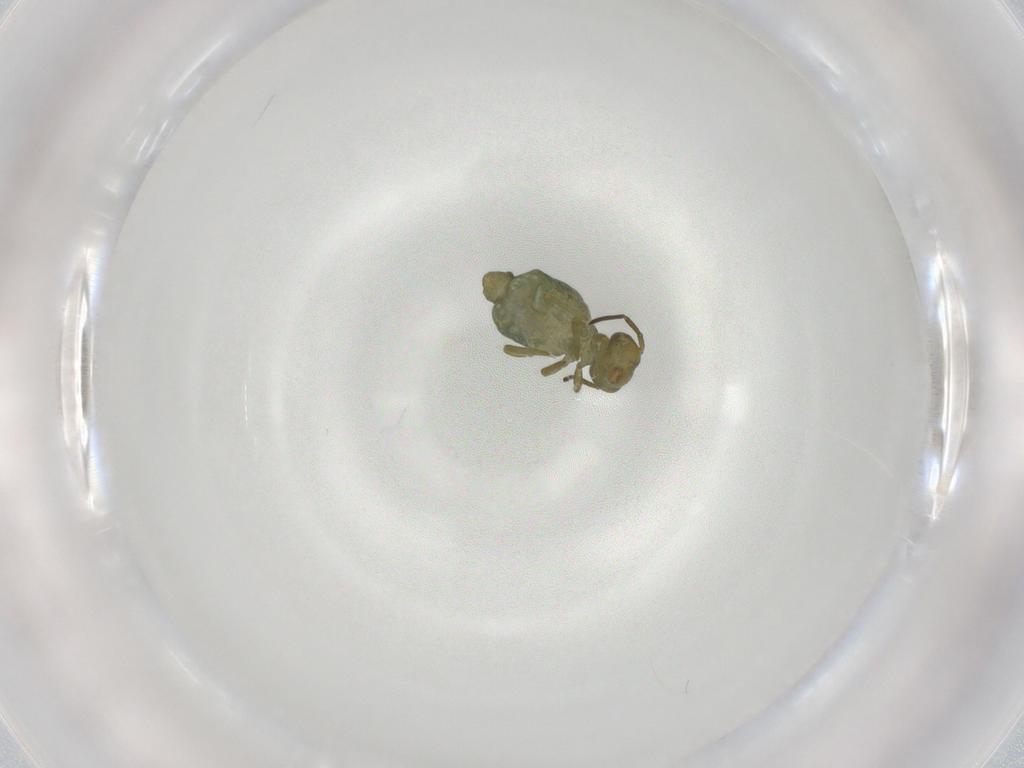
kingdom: Animalia
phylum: Arthropoda
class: Collembola
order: Symphypleona
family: Sminthuridae
